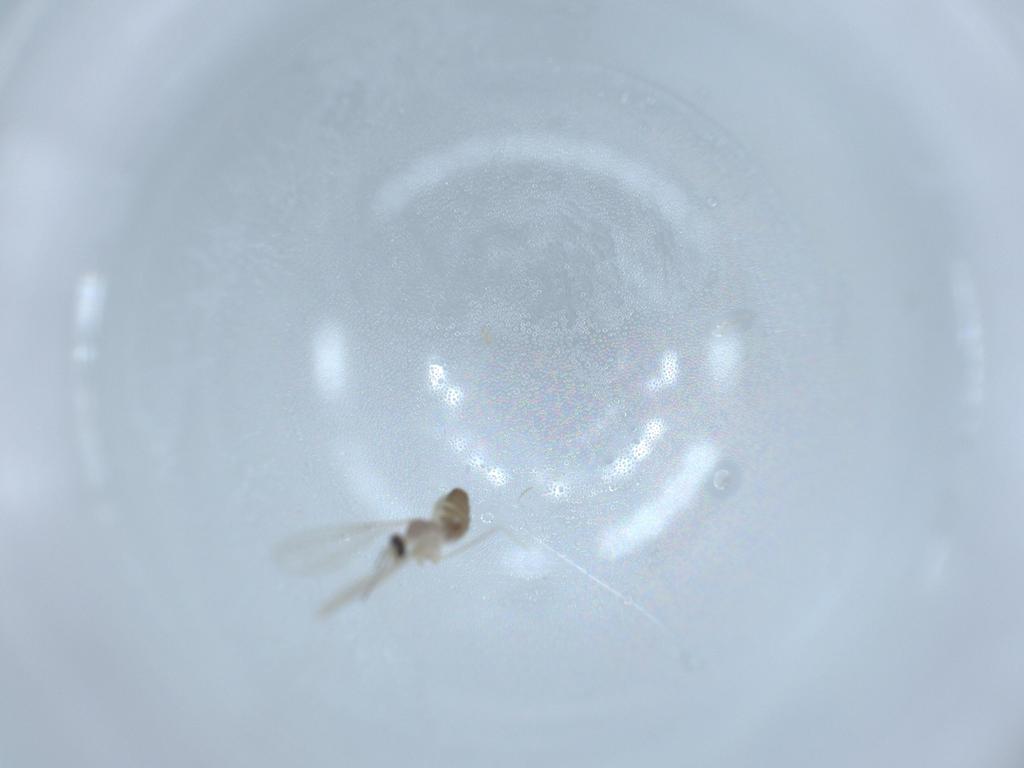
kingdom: Animalia
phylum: Arthropoda
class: Insecta
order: Diptera
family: Cecidomyiidae
